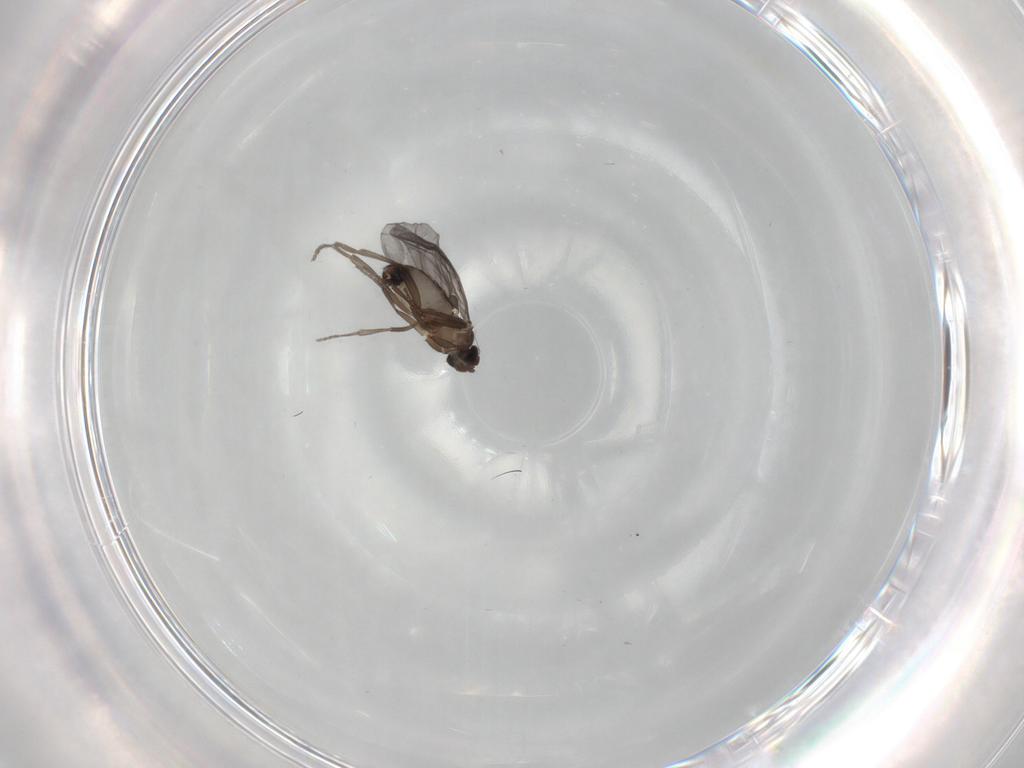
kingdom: Animalia
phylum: Arthropoda
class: Insecta
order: Diptera
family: Phoridae
